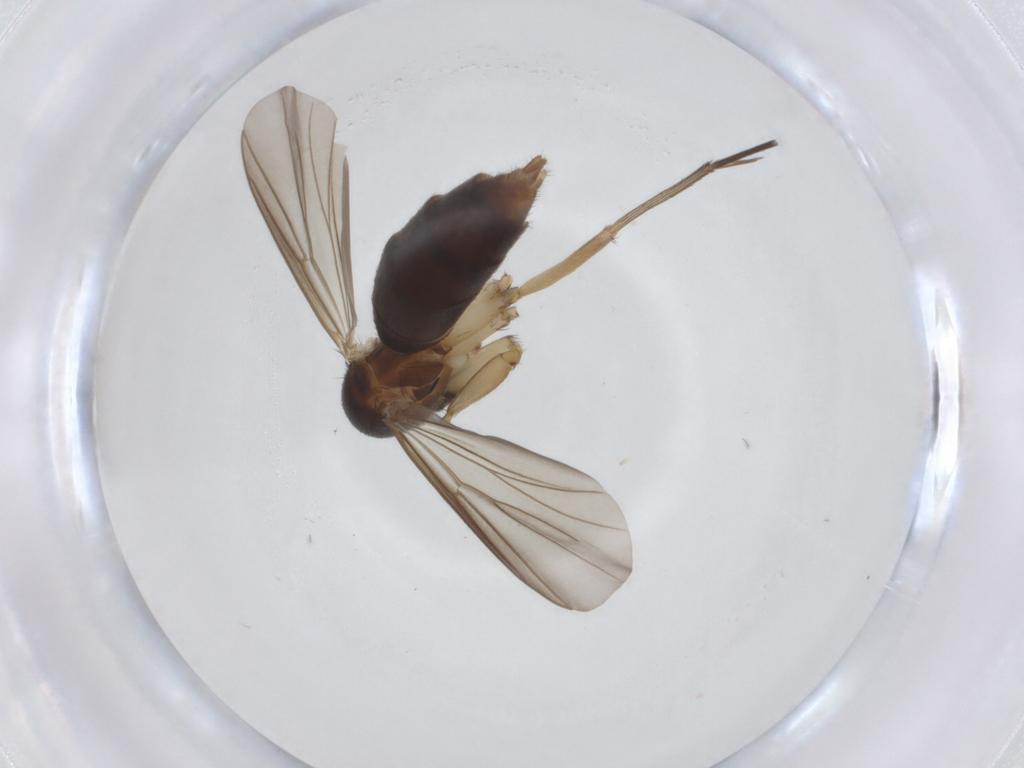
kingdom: Animalia
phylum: Arthropoda
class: Insecta
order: Diptera
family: Mycetophilidae
